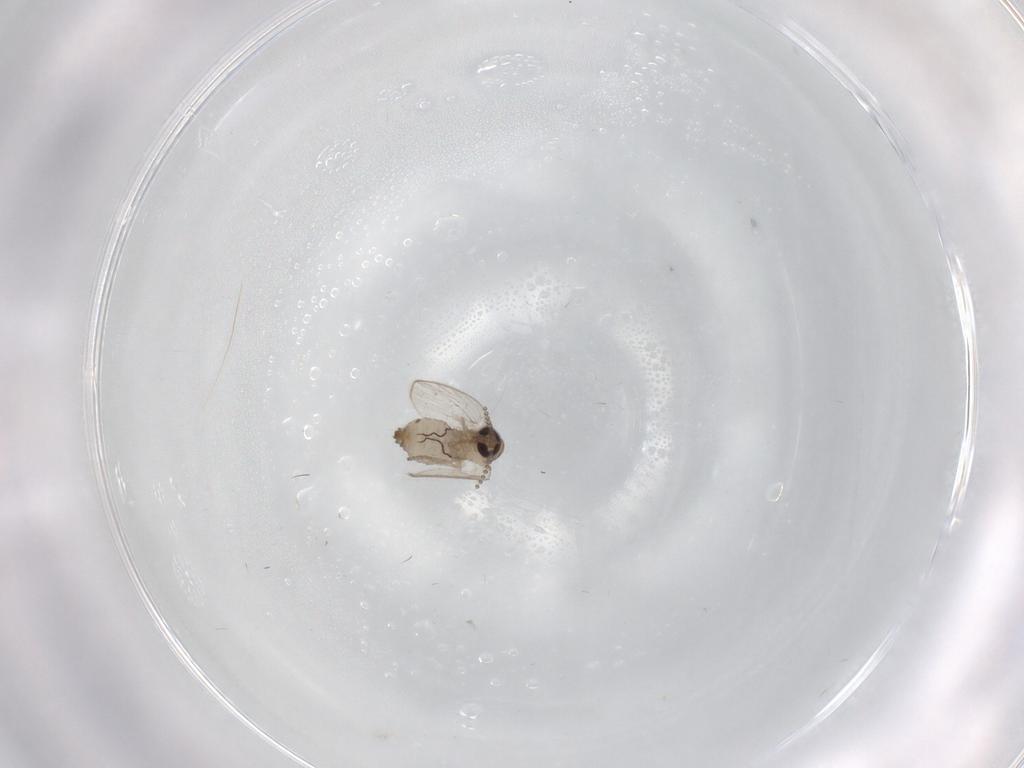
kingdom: Animalia
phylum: Arthropoda
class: Insecta
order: Diptera
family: Psychodidae
